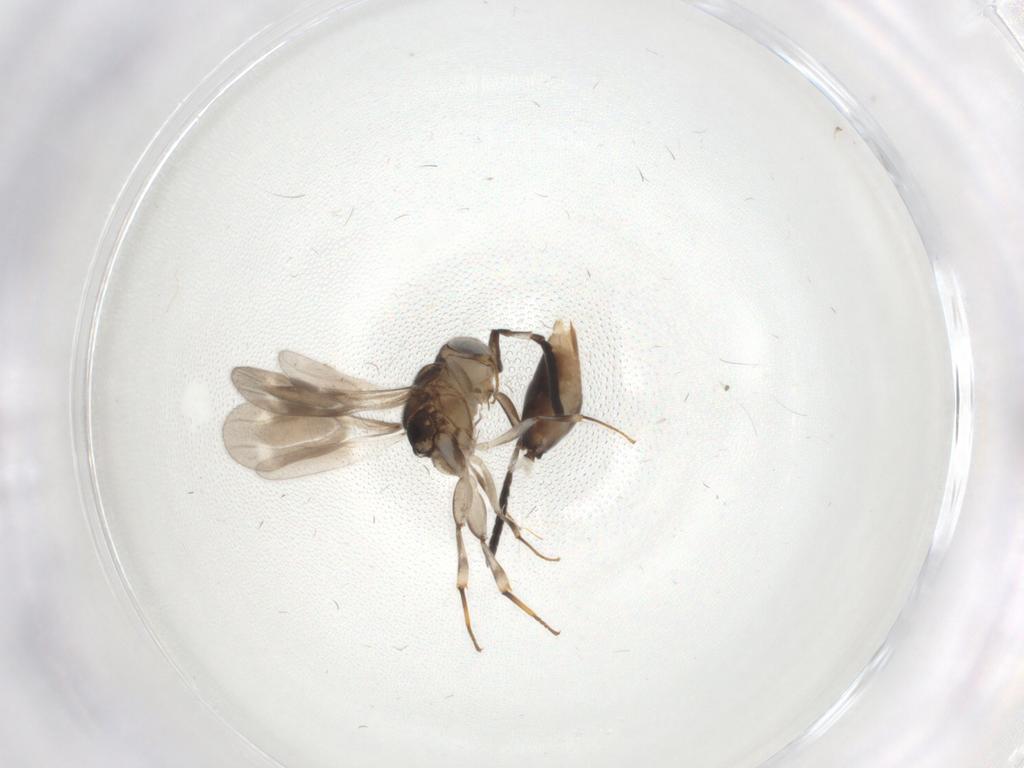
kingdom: Animalia
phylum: Arthropoda
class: Insecta
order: Diptera
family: Chironomidae
